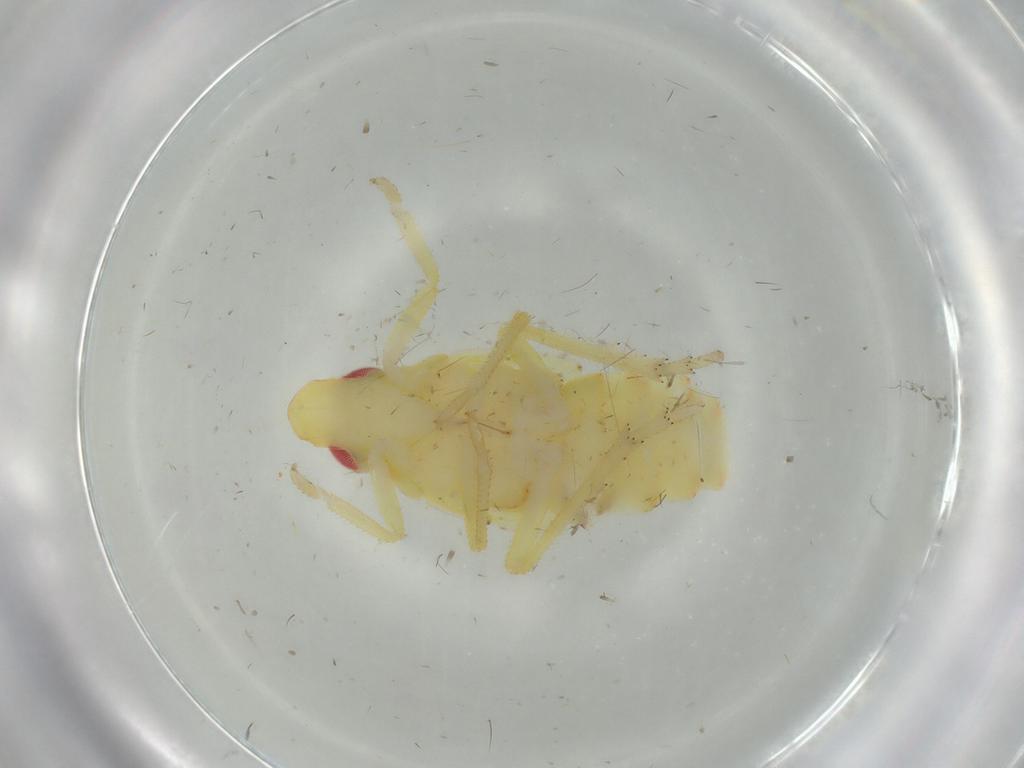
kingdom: Animalia
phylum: Arthropoda
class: Insecta
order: Hemiptera
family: Tropiduchidae
